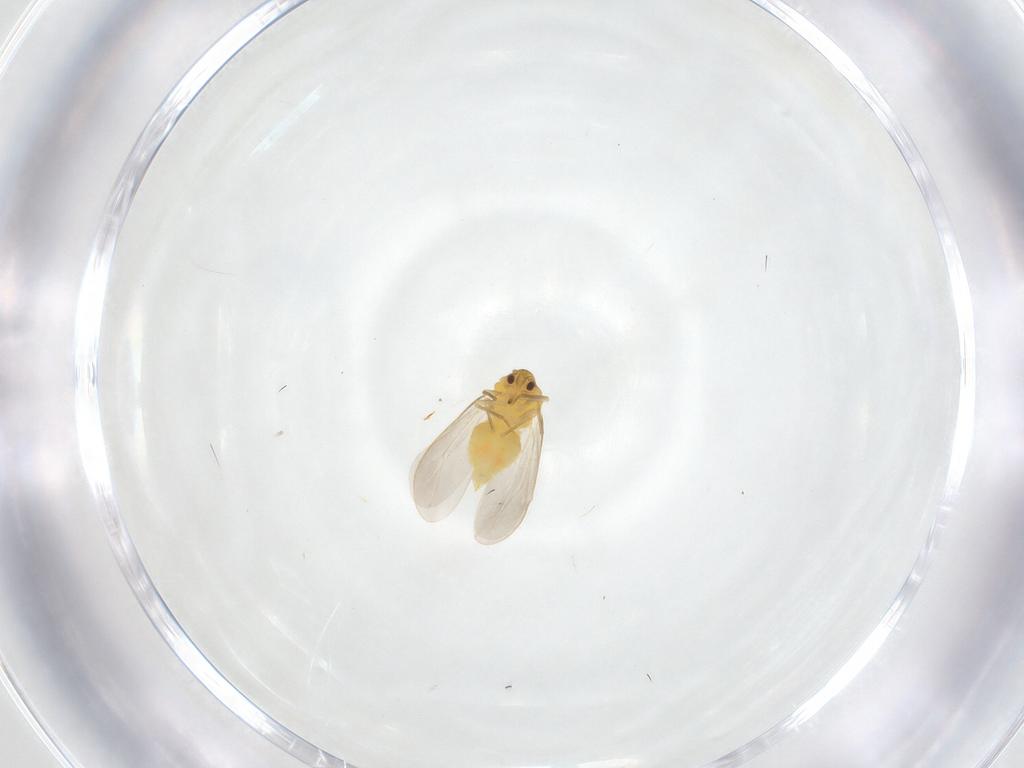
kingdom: Animalia
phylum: Arthropoda
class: Insecta
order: Hemiptera
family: Aleyrodidae
